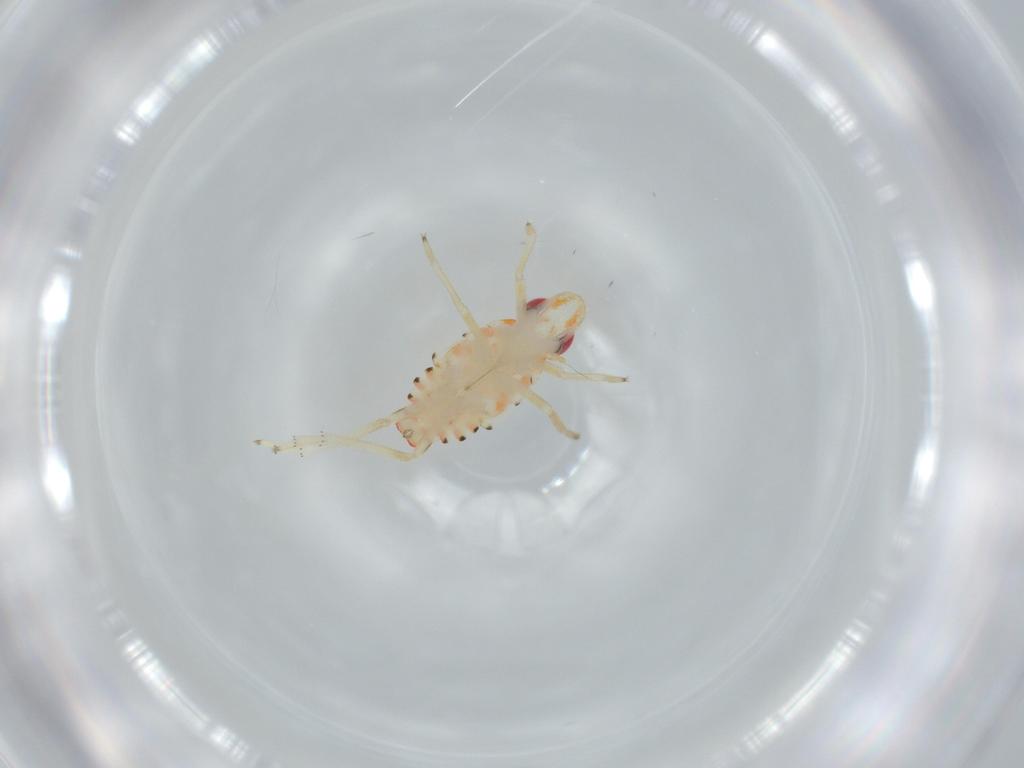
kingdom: Animalia
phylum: Arthropoda
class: Insecta
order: Hemiptera
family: Tropiduchidae
